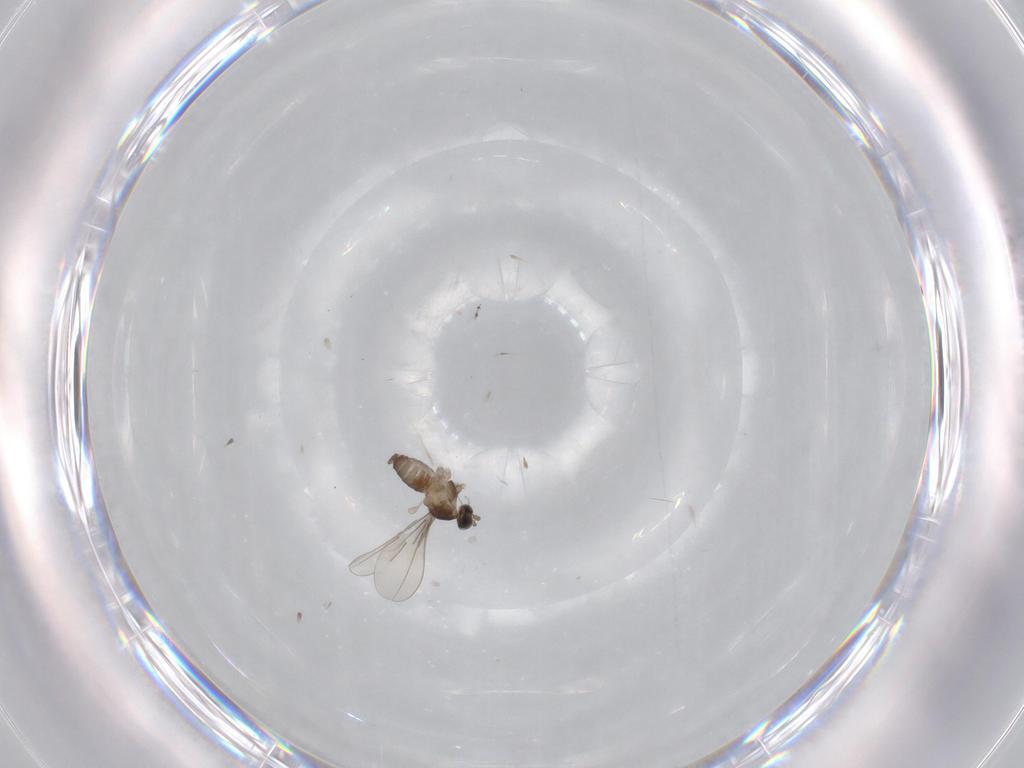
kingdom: Animalia
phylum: Arthropoda
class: Insecta
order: Diptera
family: Cecidomyiidae
